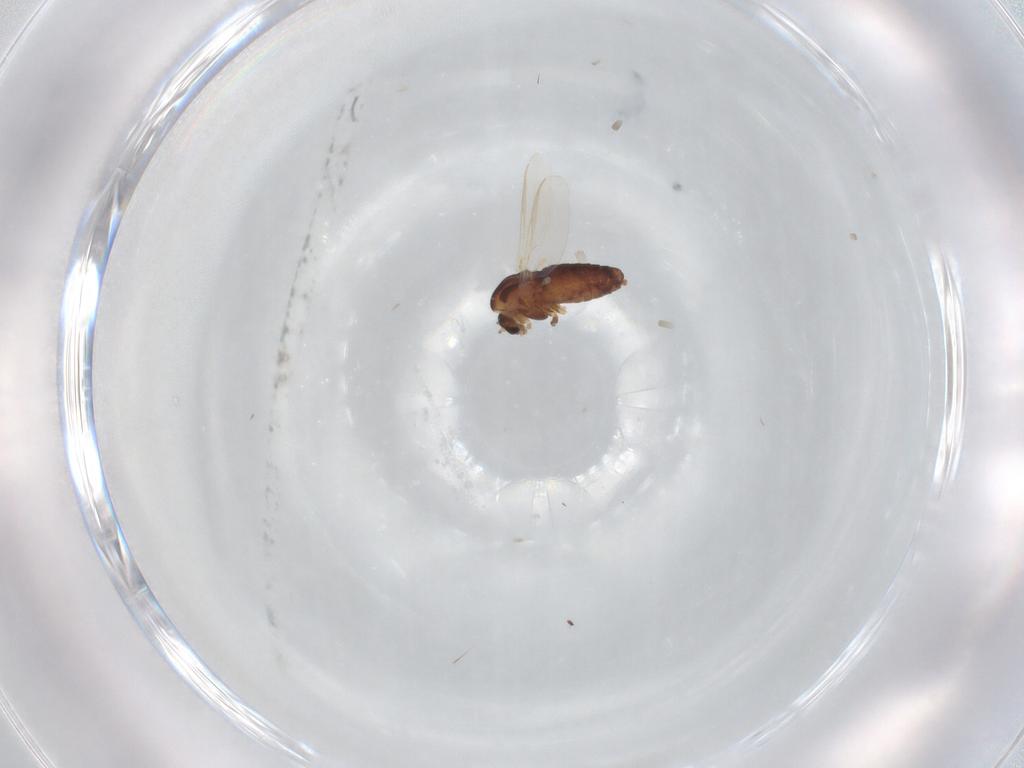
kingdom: Animalia
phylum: Arthropoda
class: Insecta
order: Diptera
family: Chironomidae
